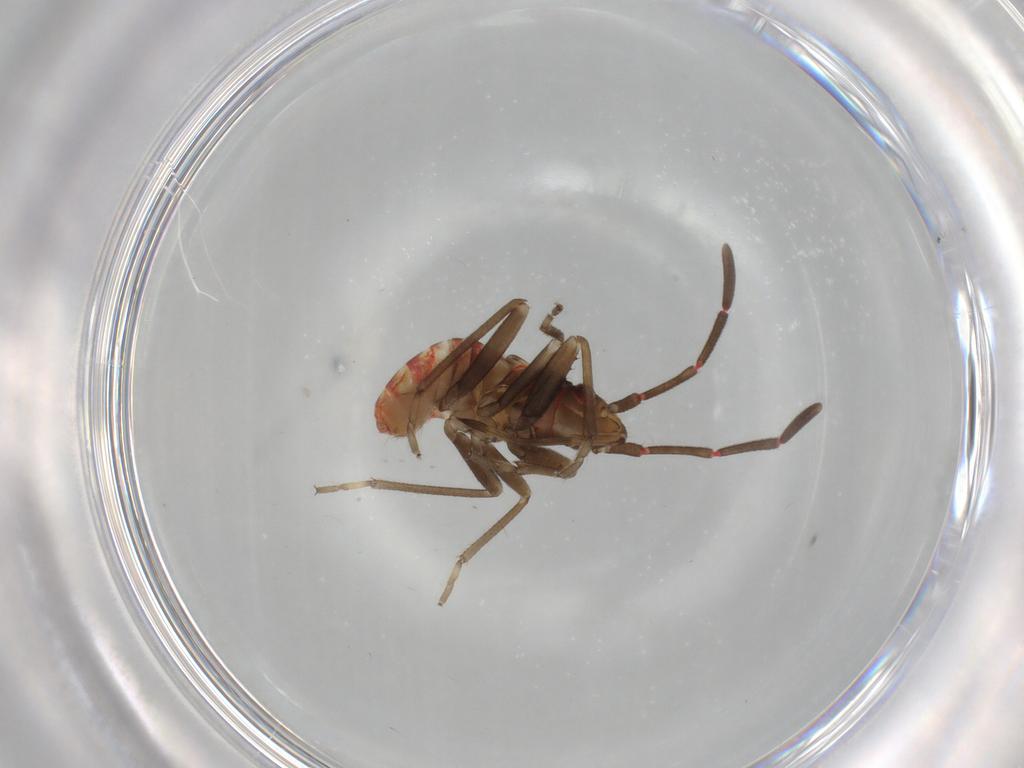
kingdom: Animalia
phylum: Arthropoda
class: Insecta
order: Hemiptera
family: Rhyparochromidae
